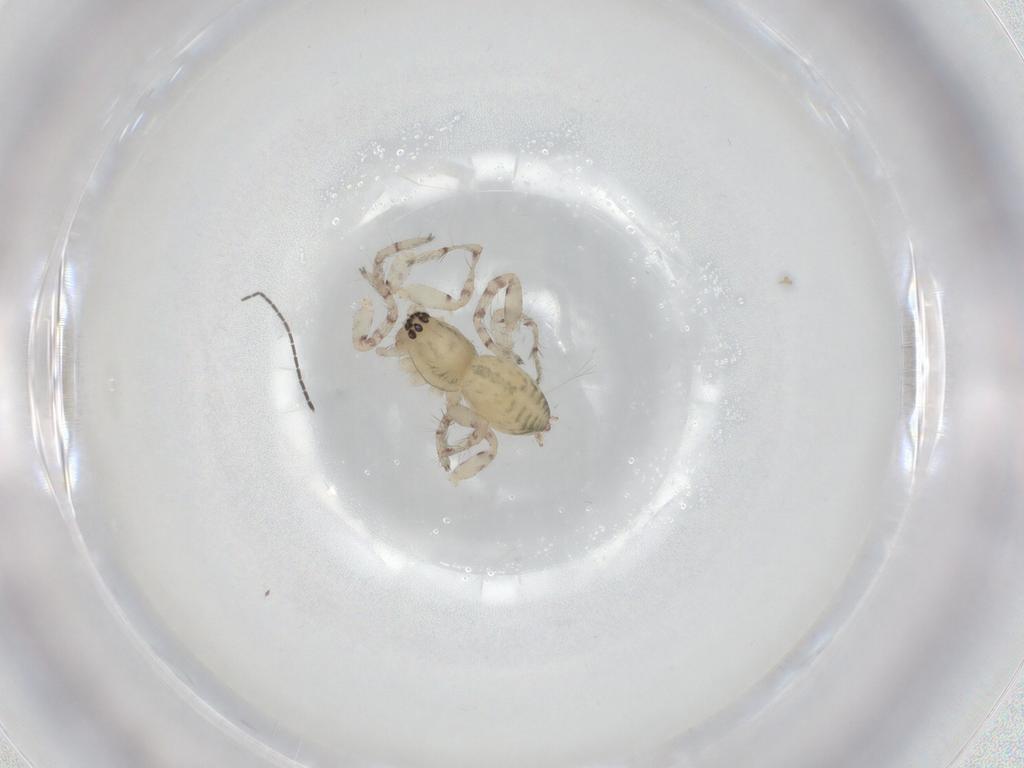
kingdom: Animalia
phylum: Arthropoda
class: Arachnida
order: Araneae
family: Anyphaenidae
